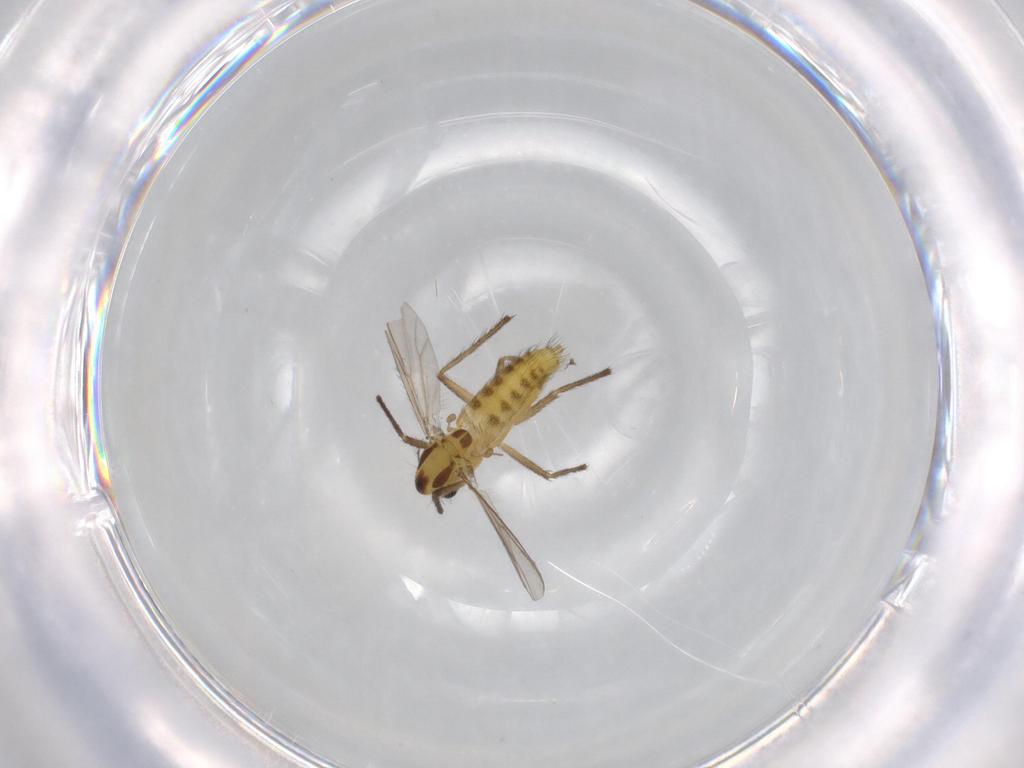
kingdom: Animalia
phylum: Arthropoda
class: Insecta
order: Diptera
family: Chironomidae
